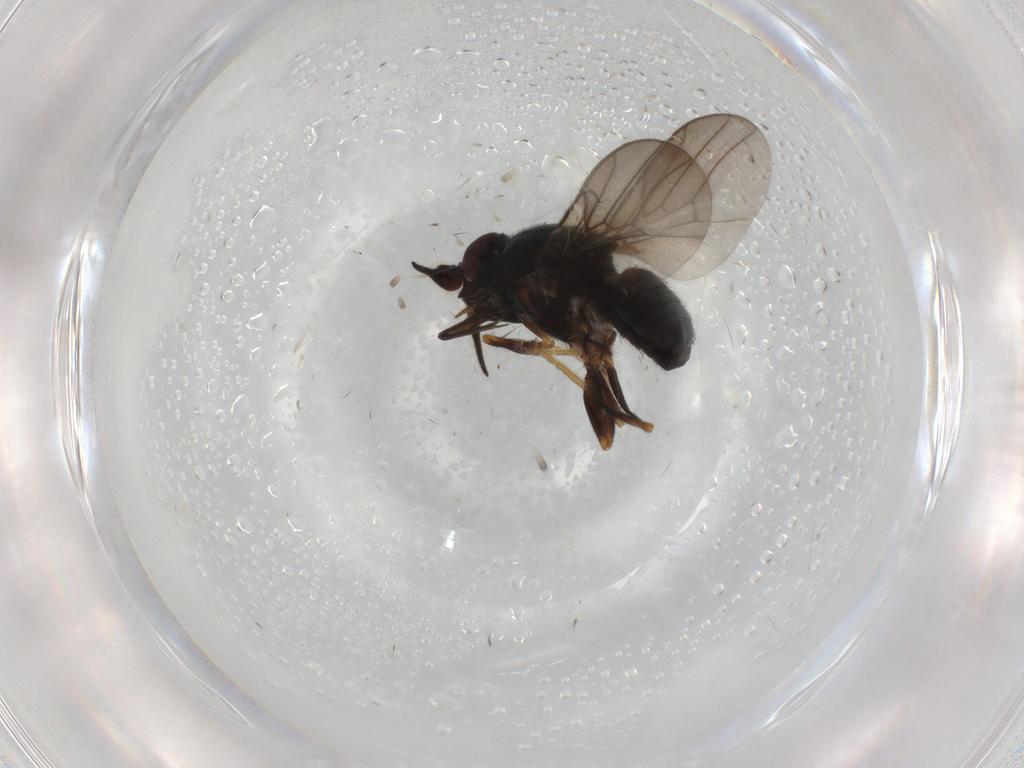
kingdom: Animalia
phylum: Arthropoda
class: Insecta
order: Diptera
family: Chloropidae
